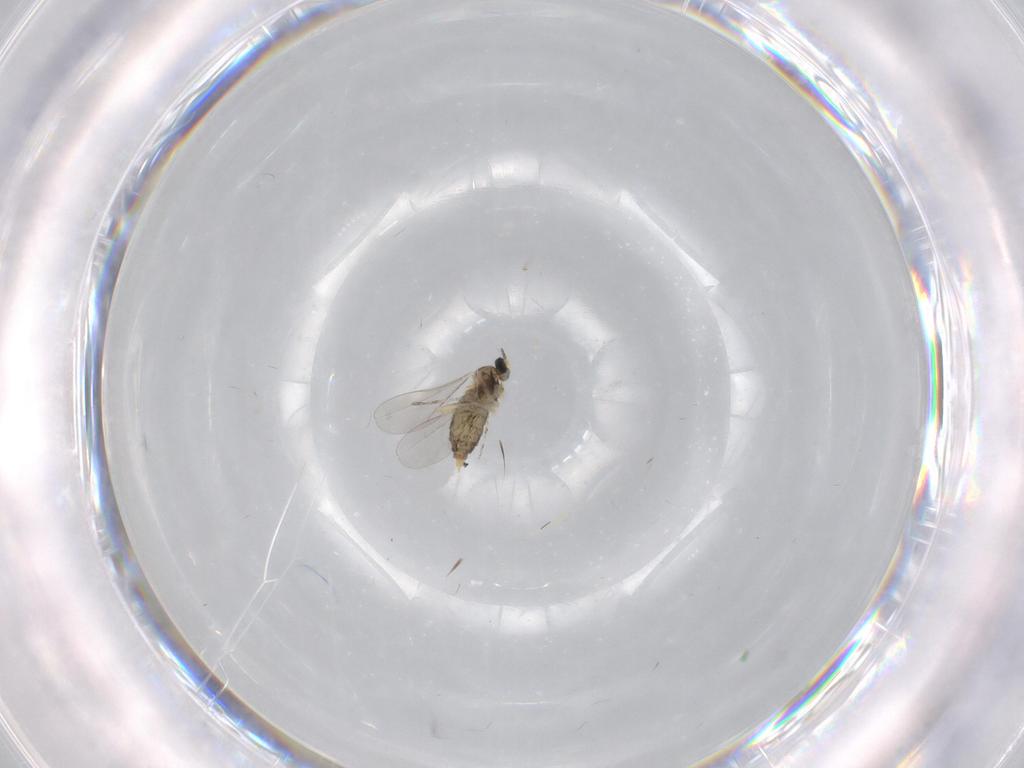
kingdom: Animalia
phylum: Arthropoda
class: Insecta
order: Diptera
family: Cecidomyiidae
